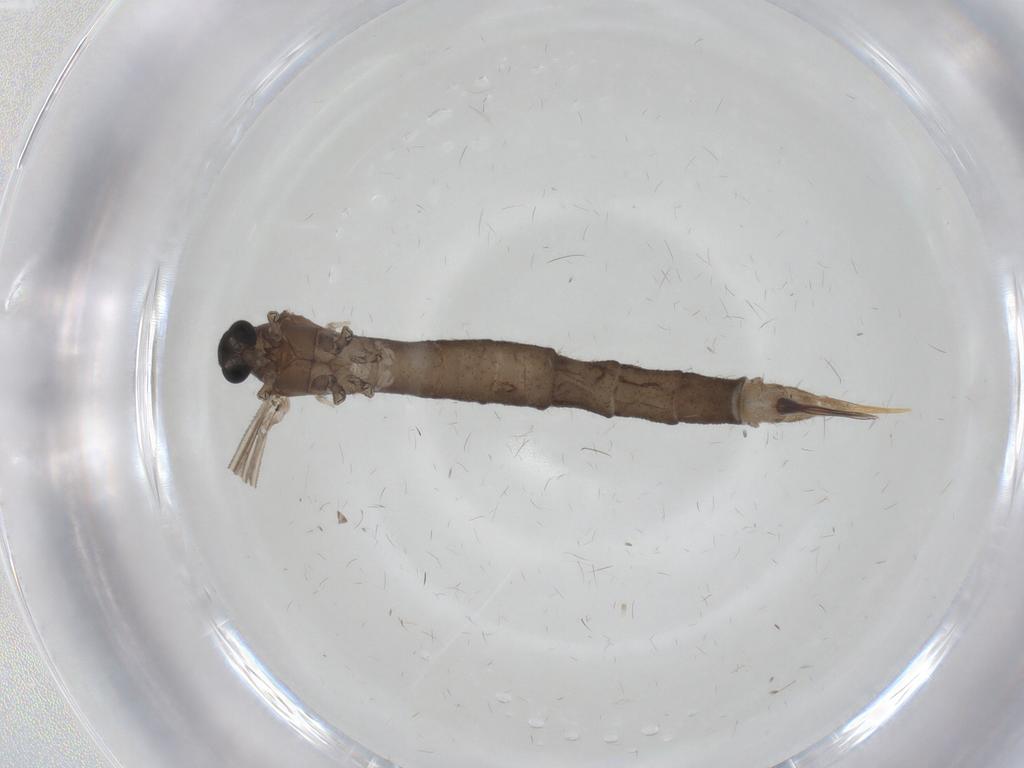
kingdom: Animalia
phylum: Arthropoda
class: Insecta
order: Diptera
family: Limoniidae
